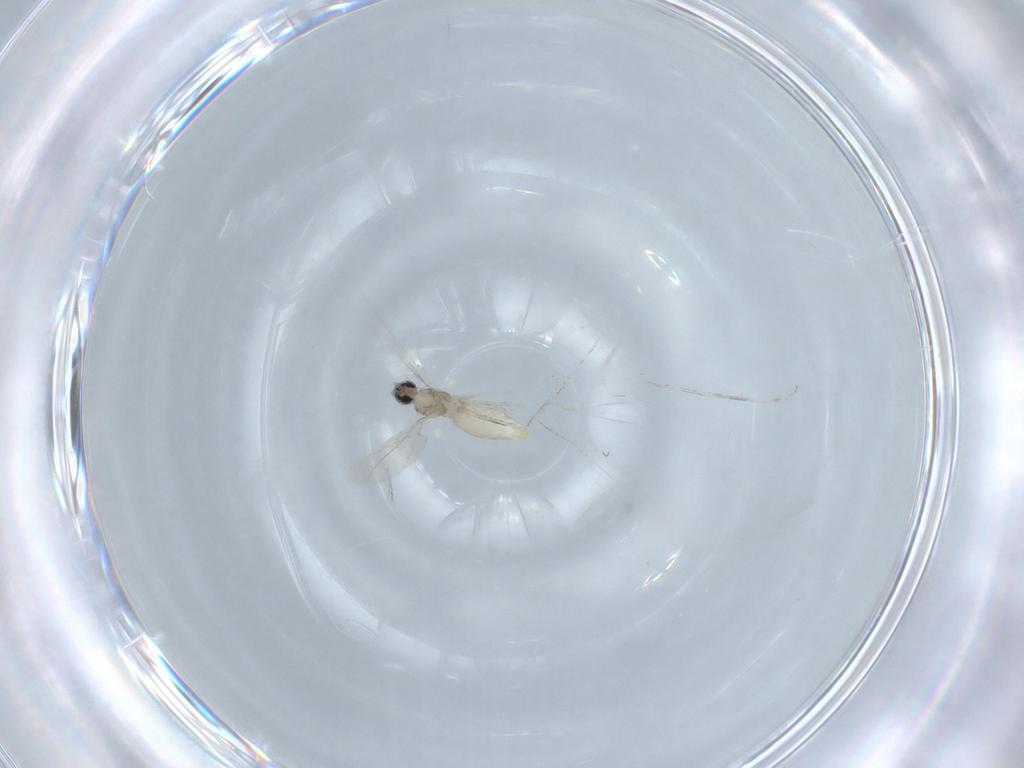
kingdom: Animalia
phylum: Arthropoda
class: Insecta
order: Diptera
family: Cecidomyiidae
